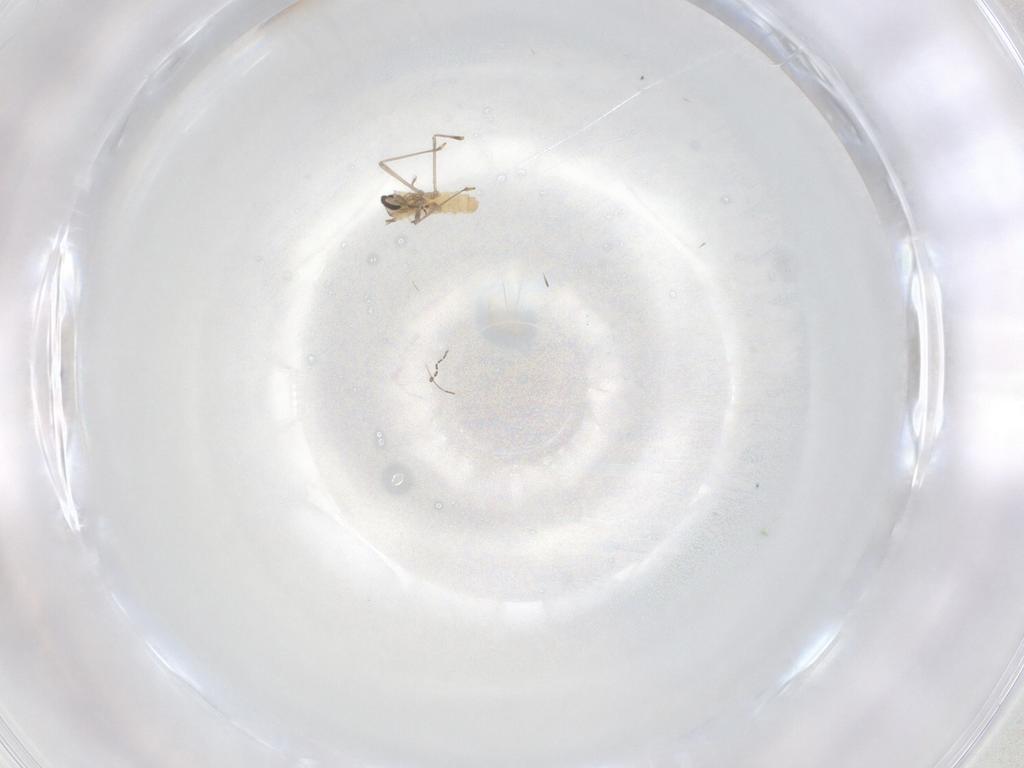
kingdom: Animalia
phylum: Arthropoda
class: Insecta
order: Diptera
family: Cecidomyiidae
